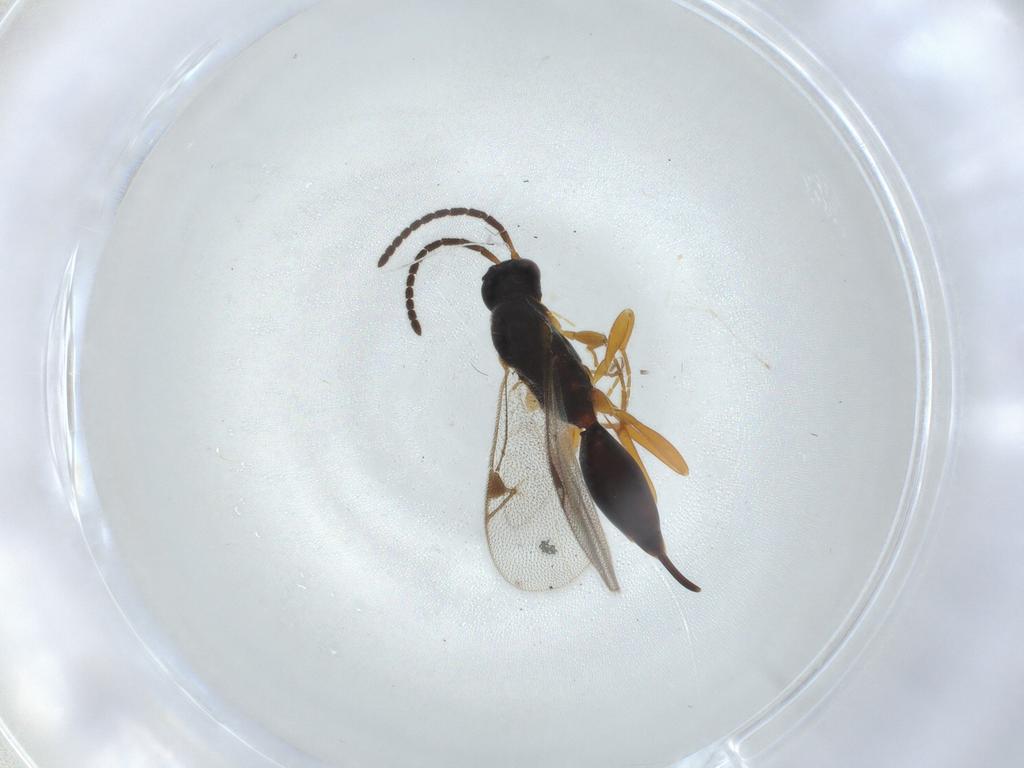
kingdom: Animalia
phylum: Arthropoda
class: Insecta
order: Hymenoptera
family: Proctotrupidae
